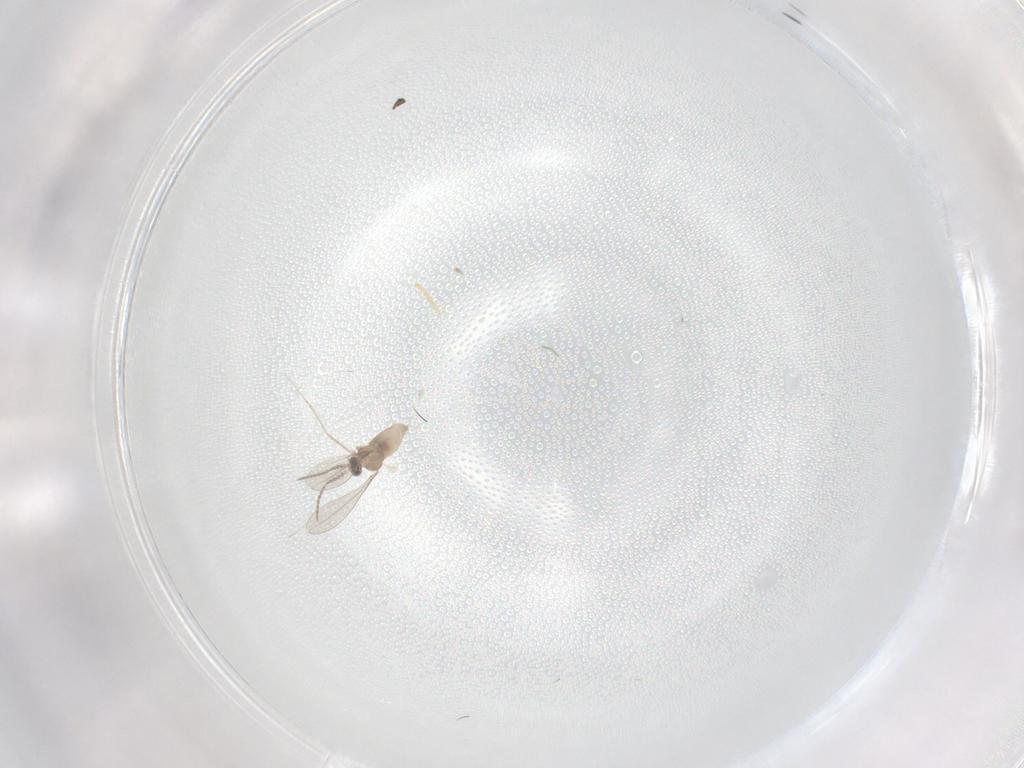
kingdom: Animalia
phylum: Arthropoda
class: Insecta
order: Diptera
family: Cecidomyiidae
